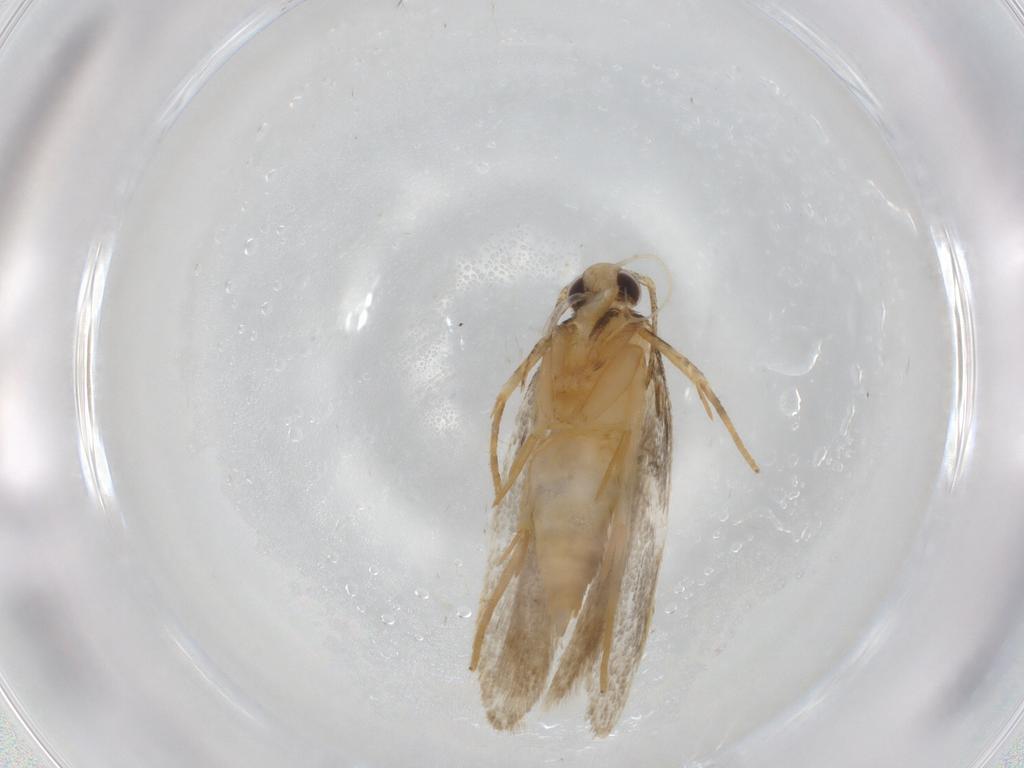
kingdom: Animalia
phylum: Arthropoda
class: Insecta
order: Lepidoptera
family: Autostichidae
